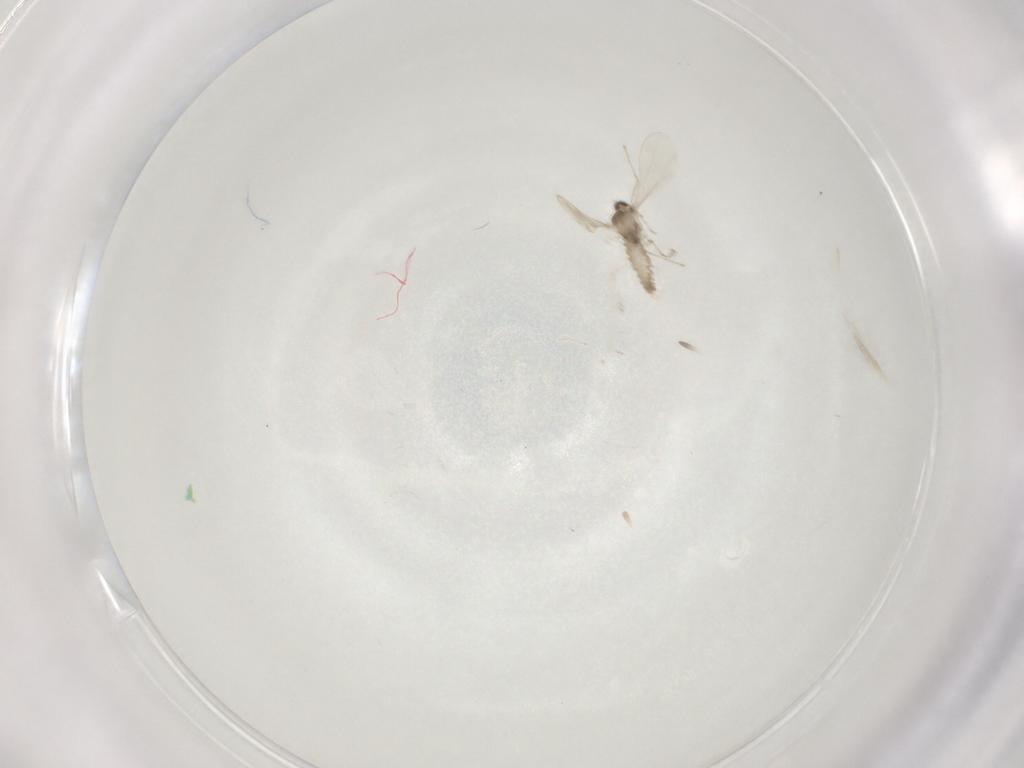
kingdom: Animalia
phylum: Arthropoda
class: Insecta
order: Diptera
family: Cecidomyiidae
